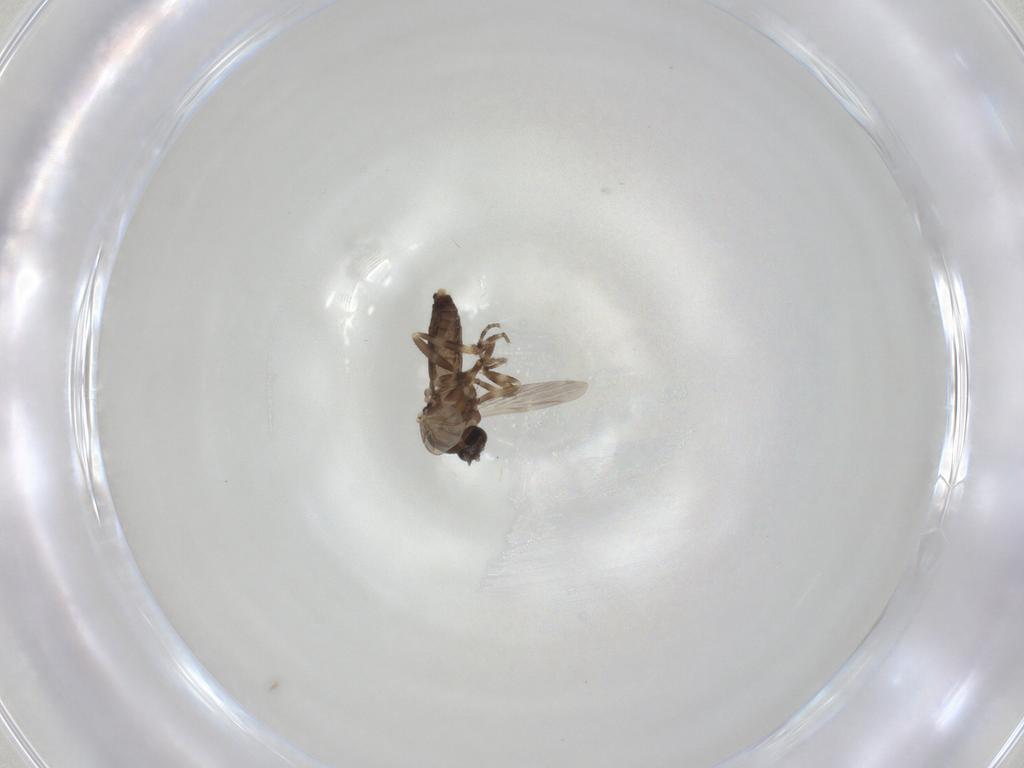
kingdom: Animalia
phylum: Arthropoda
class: Insecta
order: Diptera
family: Ceratopogonidae
